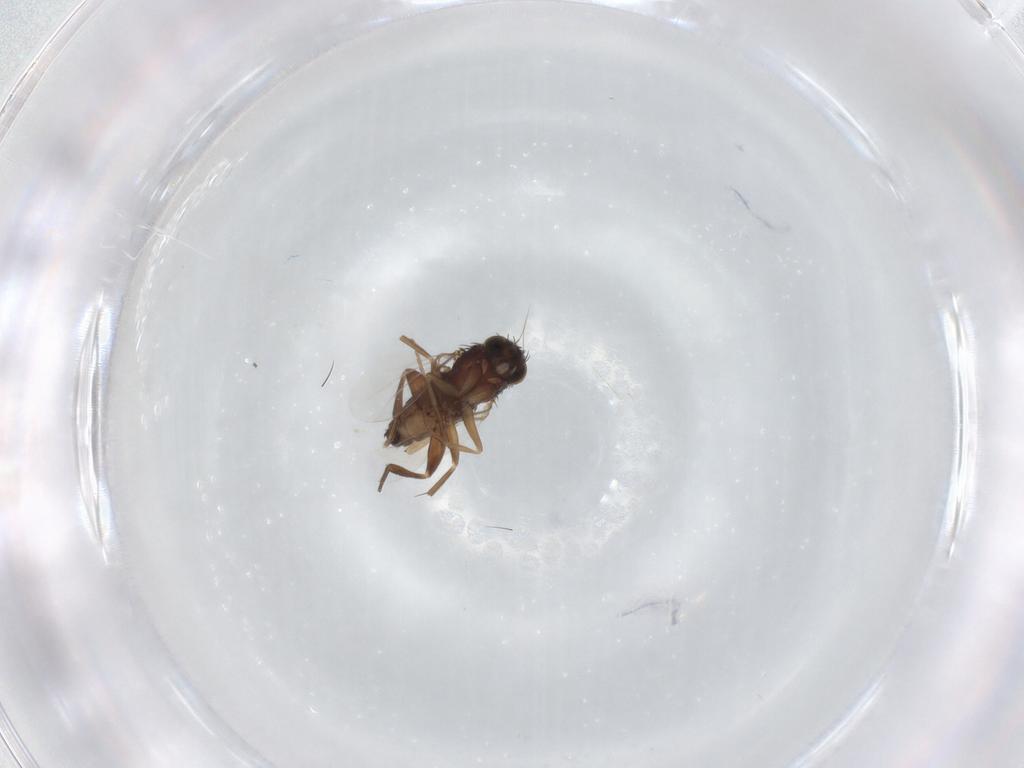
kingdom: Animalia
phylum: Arthropoda
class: Insecta
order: Diptera
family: Phoridae
